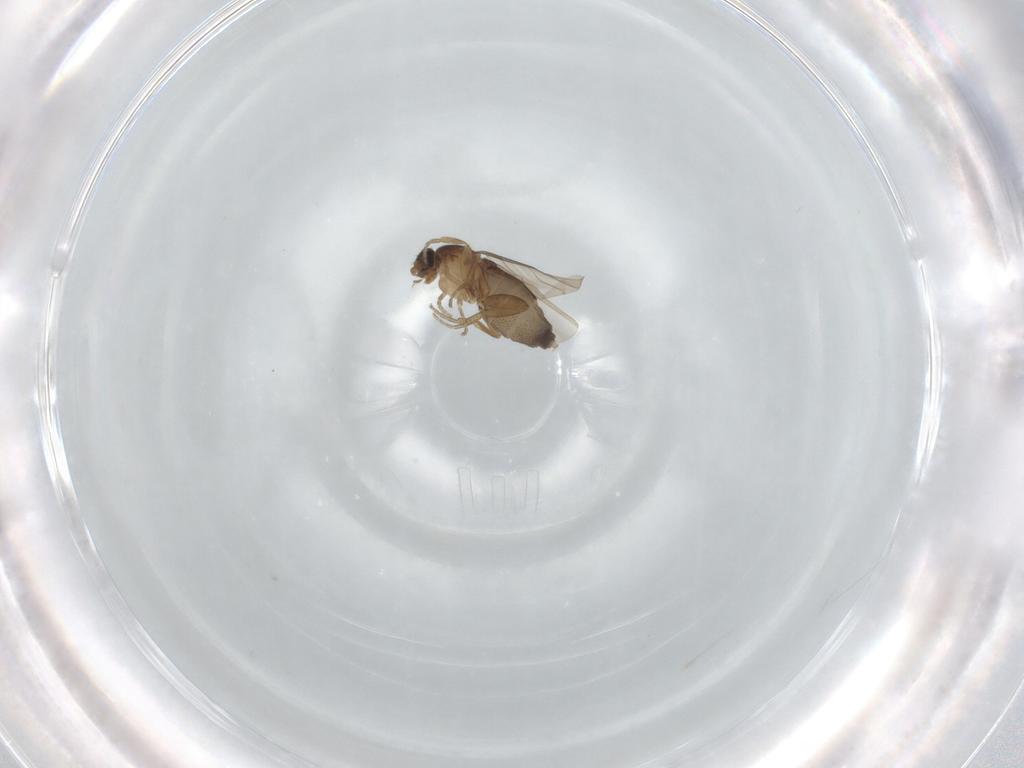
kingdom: Animalia
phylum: Arthropoda
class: Insecta
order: Diptera
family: Phoridae
